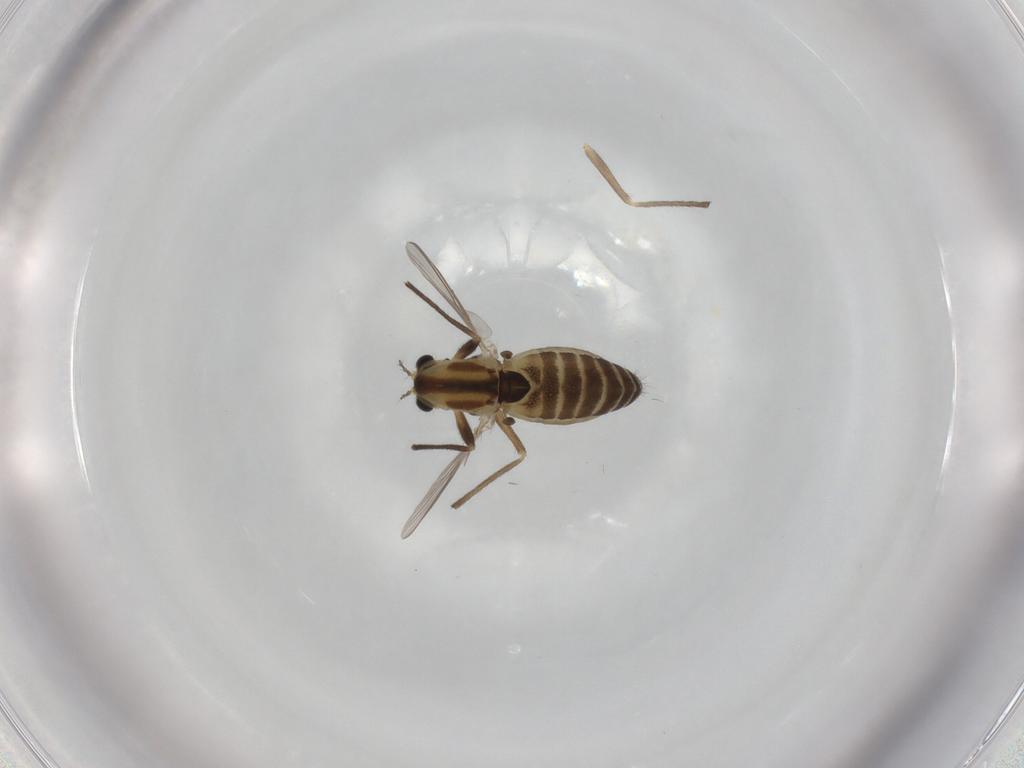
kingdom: Animalia
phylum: Arthropoda
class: Insecta
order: Diptera
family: Chironomidae
